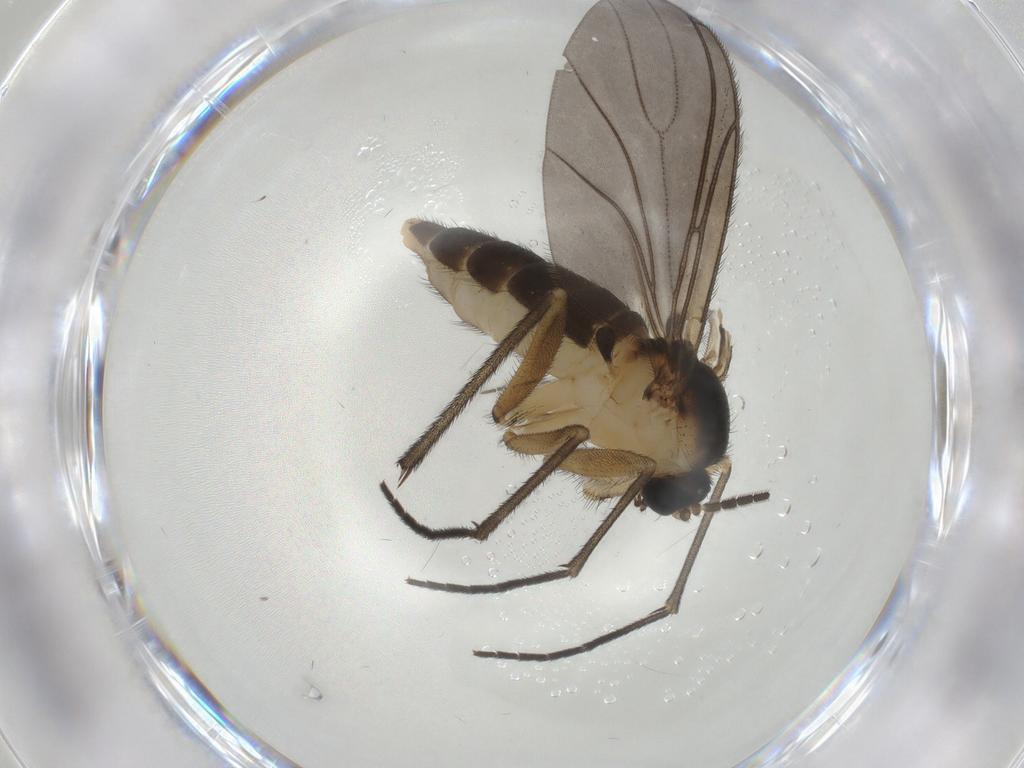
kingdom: Animalia
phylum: Arthropoda
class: Insecta
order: Diptera
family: Sciaridae
